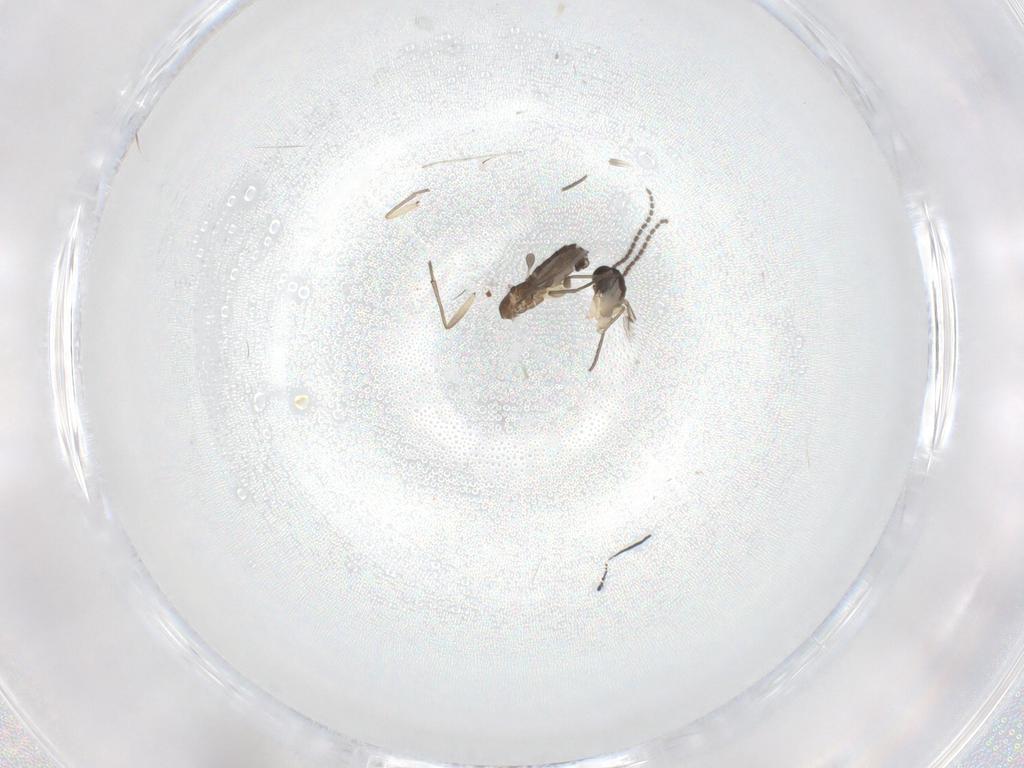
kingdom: Animalia
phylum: Arthropoda
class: Insecta
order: Diptera
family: Sciaridae
